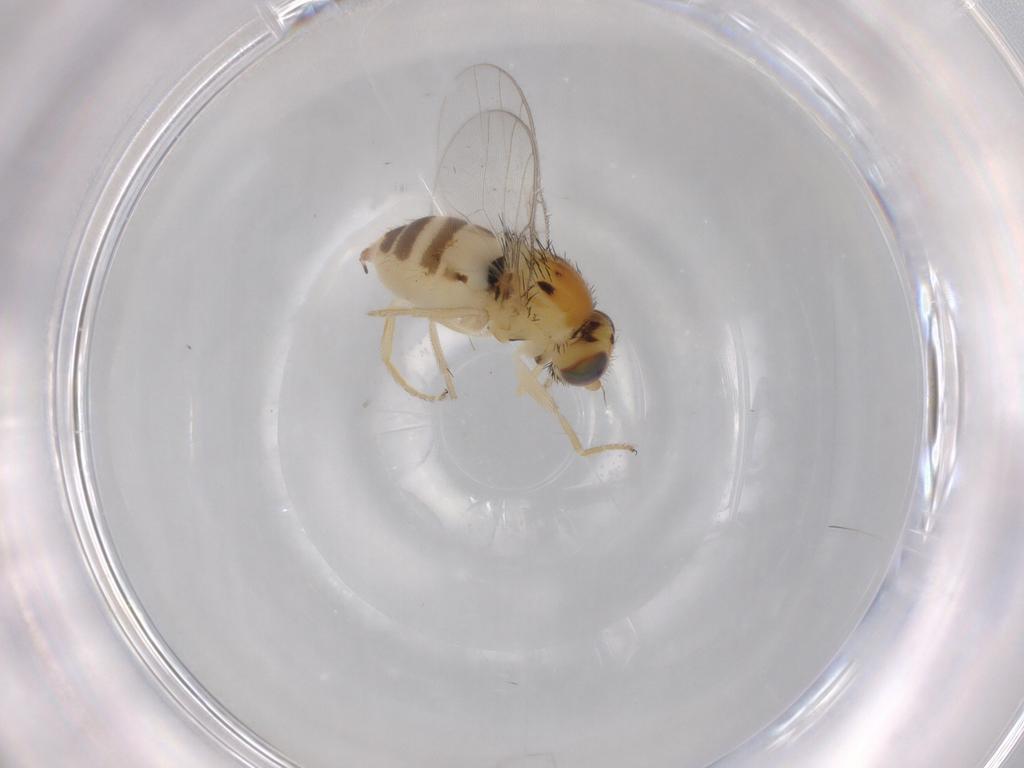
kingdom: Animalia
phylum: Arthropoda
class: Insecta
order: Diptera
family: Chloropidae
